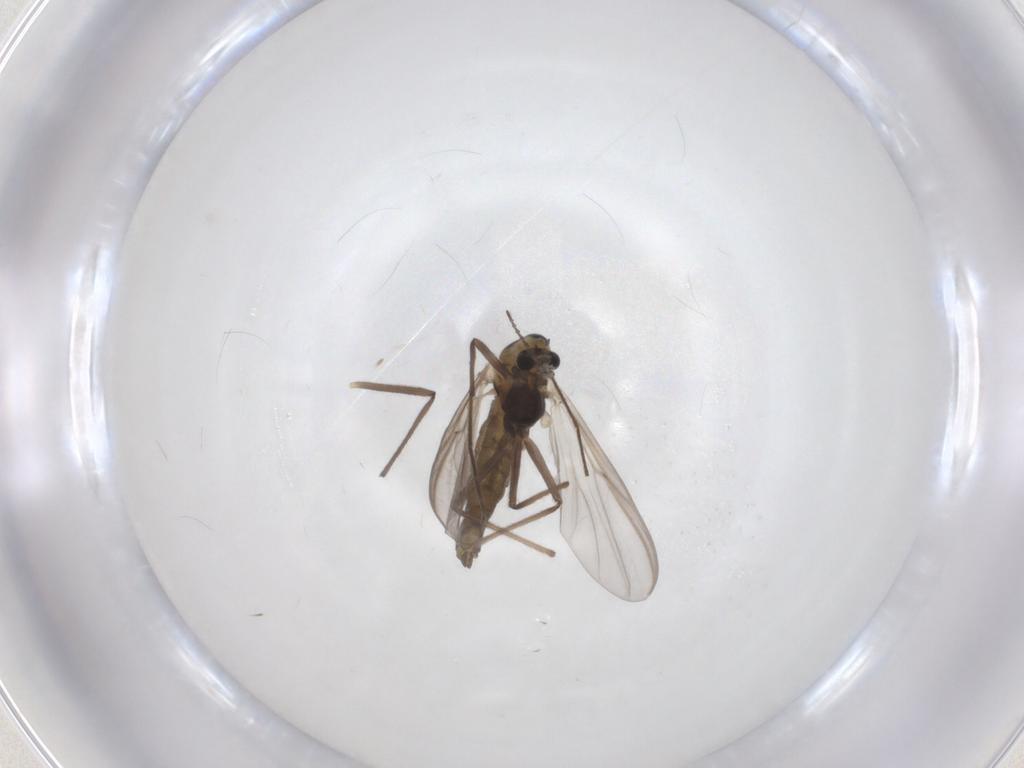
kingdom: Animalia
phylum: Arthropoda
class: Insecta
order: Diptera
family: Chironomidae
